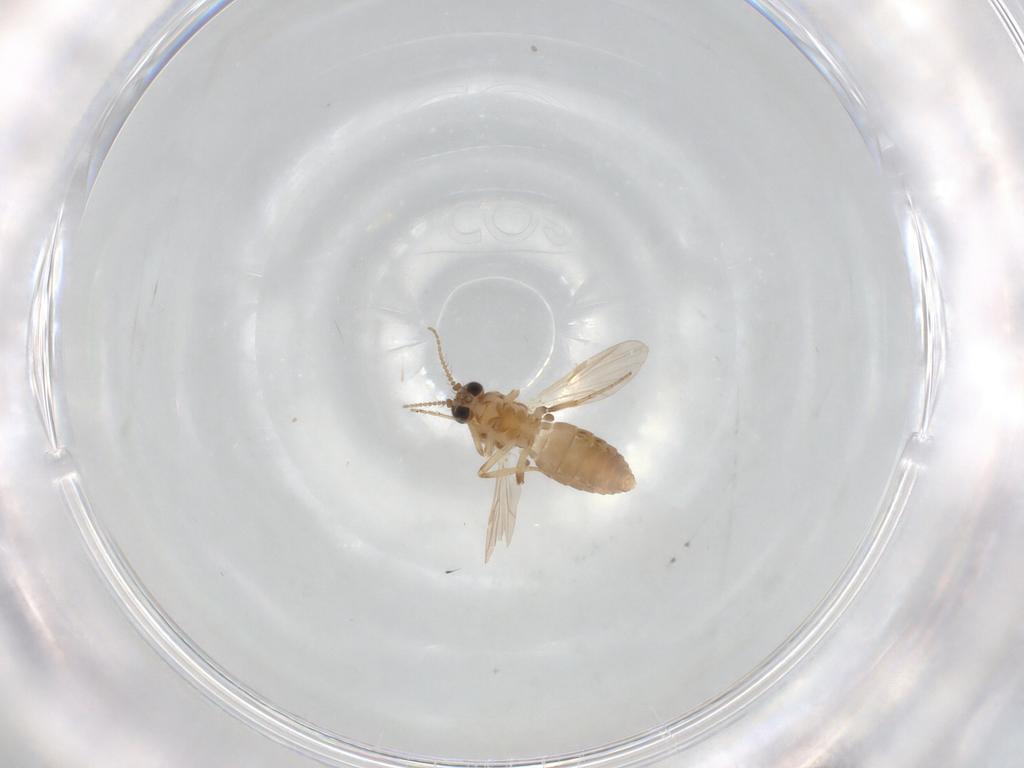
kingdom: Animalia
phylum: Arthropoda
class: Insecta
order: Diptera
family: Ceratopogonidae
